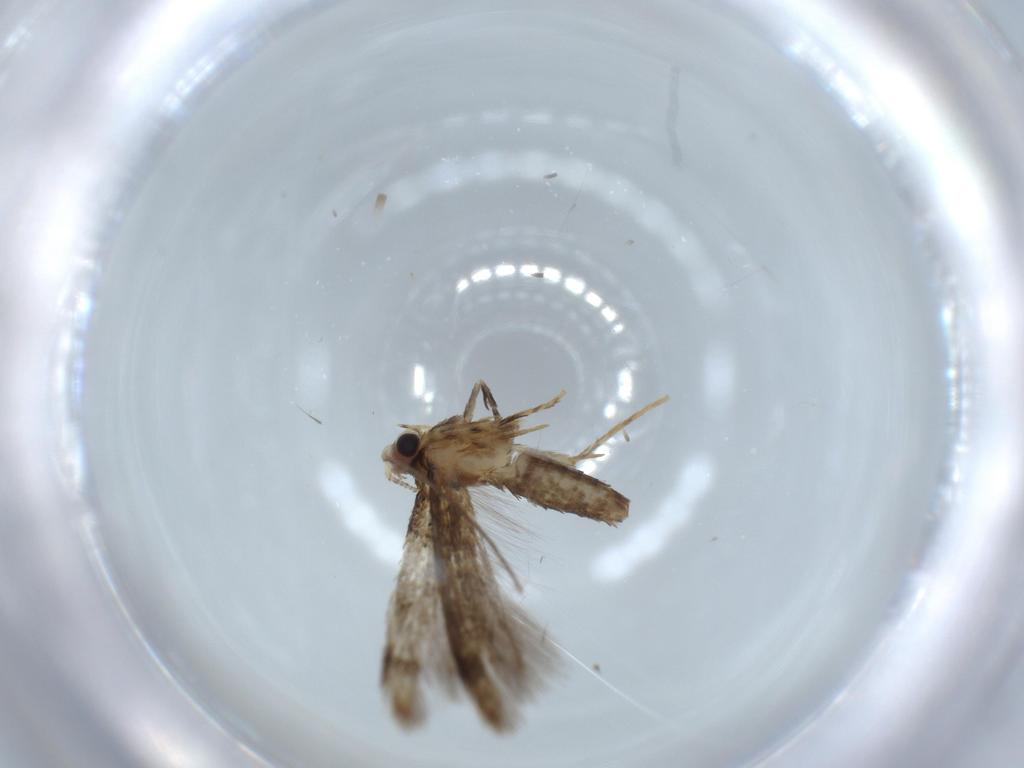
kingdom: Animalia
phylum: Arthropoda
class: Insecta
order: Lepidoptera
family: Tineidae
